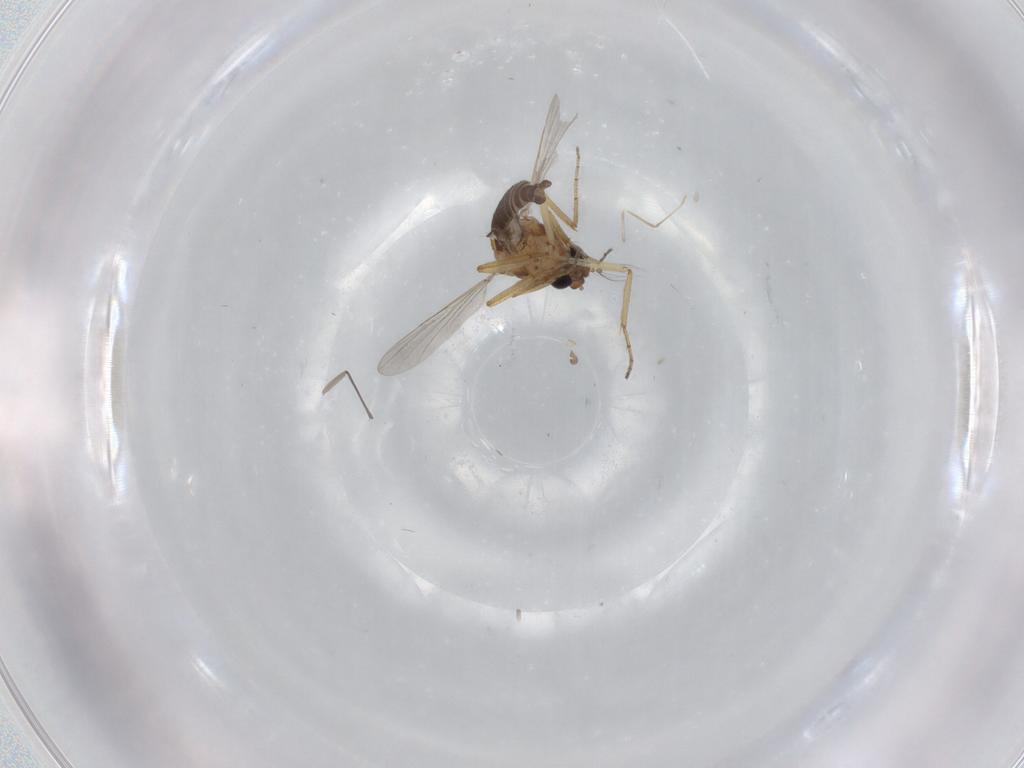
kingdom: Animalia
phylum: Arthropoda
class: Insecta
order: Diptera
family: Ceratopogonidae
